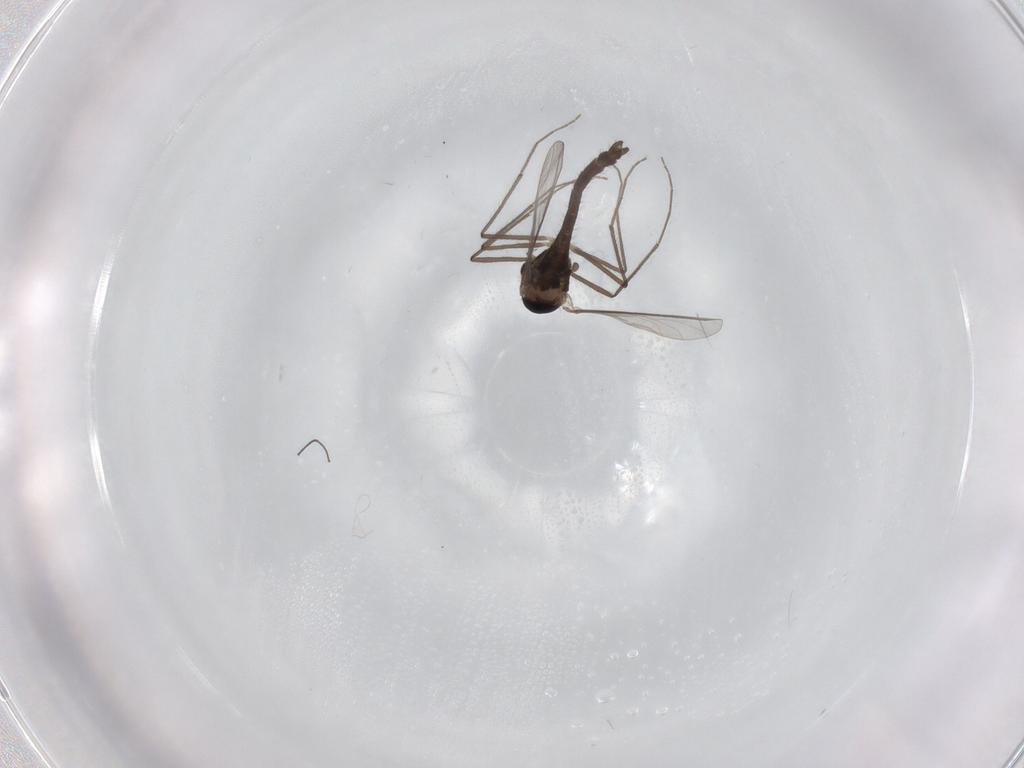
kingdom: Animalia
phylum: Arthropoda
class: Insecta
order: Diptera
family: Chironomidae
